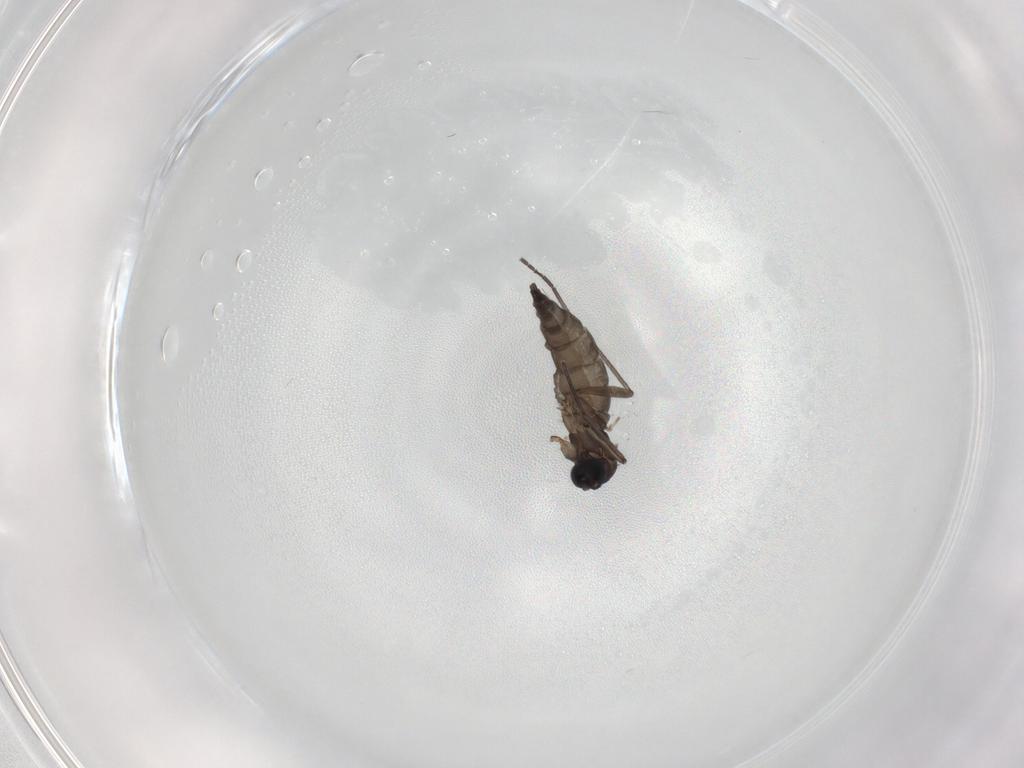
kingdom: Animalia
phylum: Arthropoda
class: Insecta
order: Diptera
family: Sciaridae
